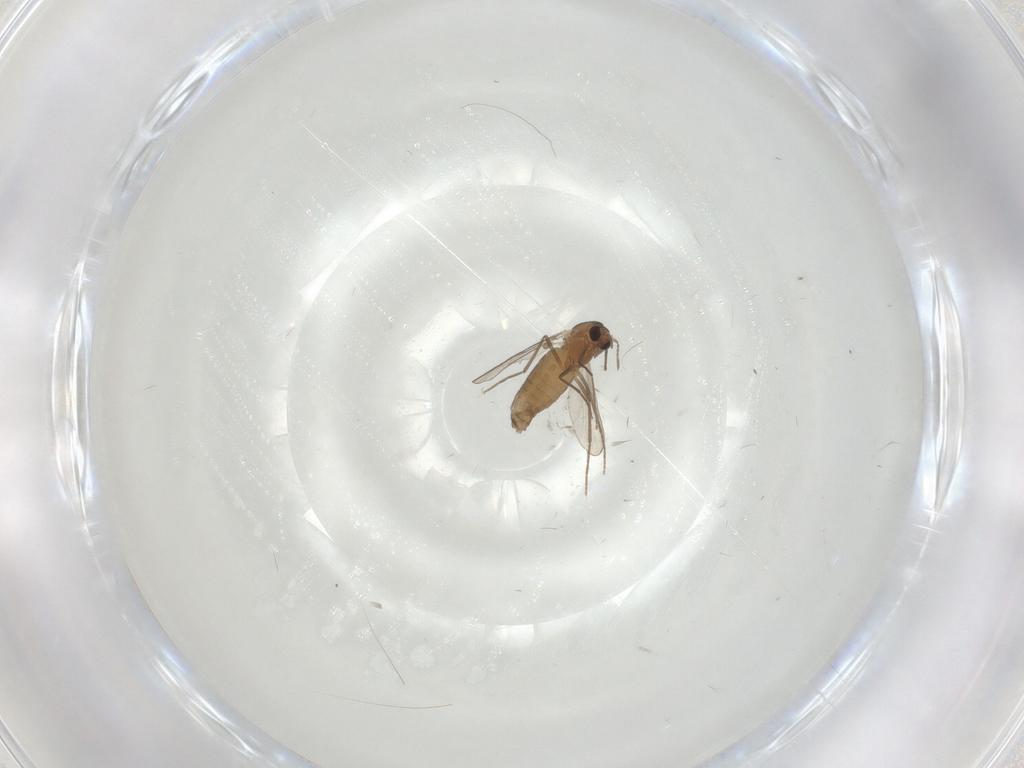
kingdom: Animalia
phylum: Arthropoda
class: Insecta
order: Diptera
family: Chironomidae
